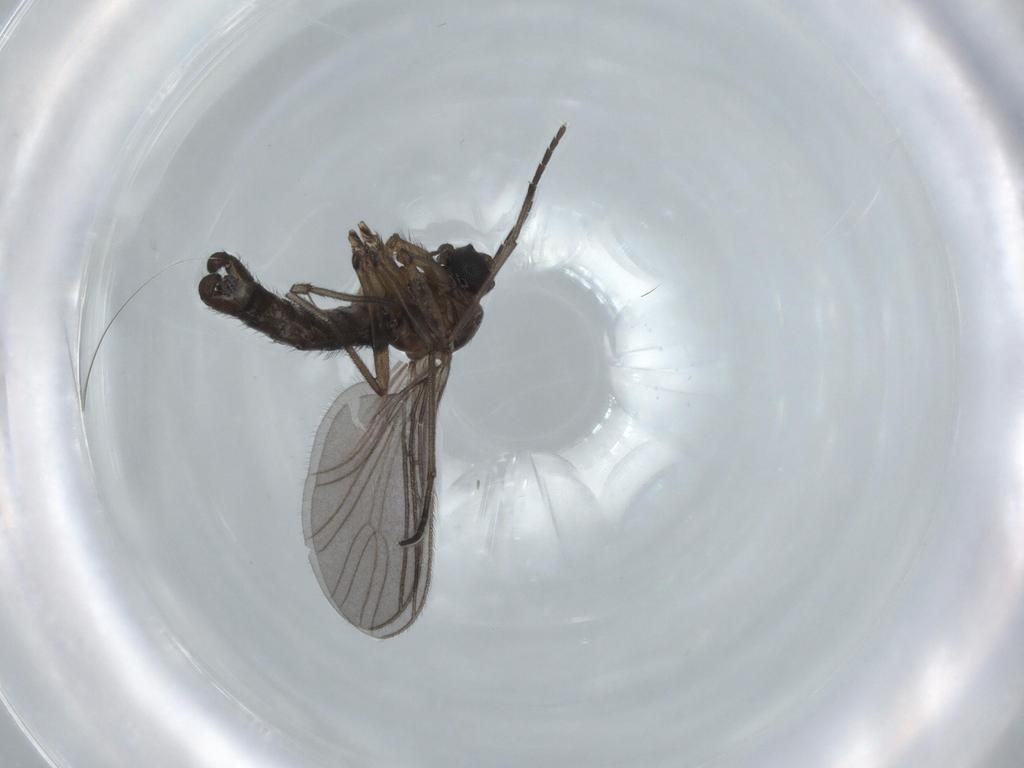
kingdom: Animalia
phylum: Arthropoda
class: Insecta
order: Diptera
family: Sciaridae
